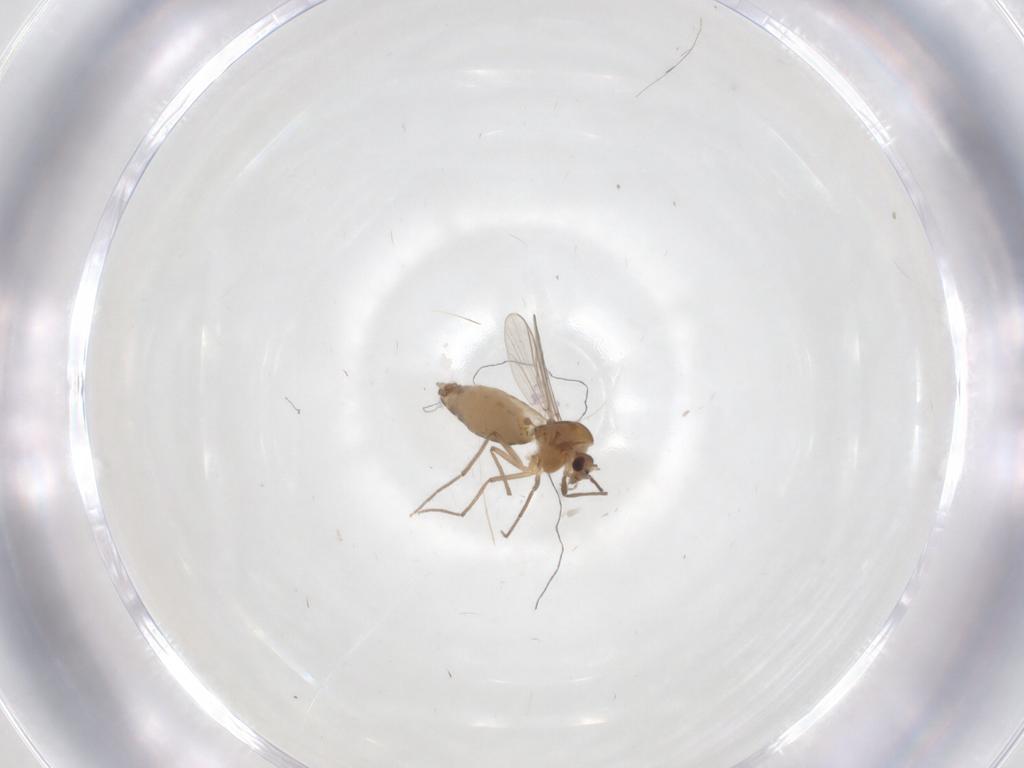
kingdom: Animalia
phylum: Arthropoda
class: Insecta
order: Diptera
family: Chironomidae
